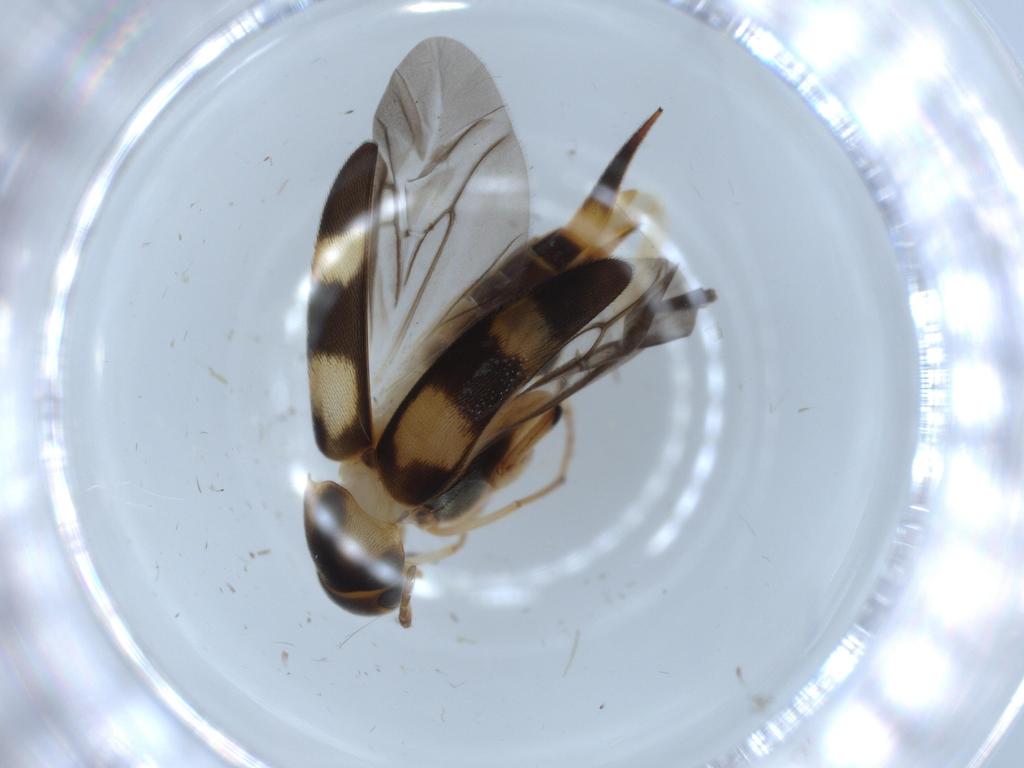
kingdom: Animalia
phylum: Arthropoda
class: Insecta
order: Coleoptera
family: Mordellidae
